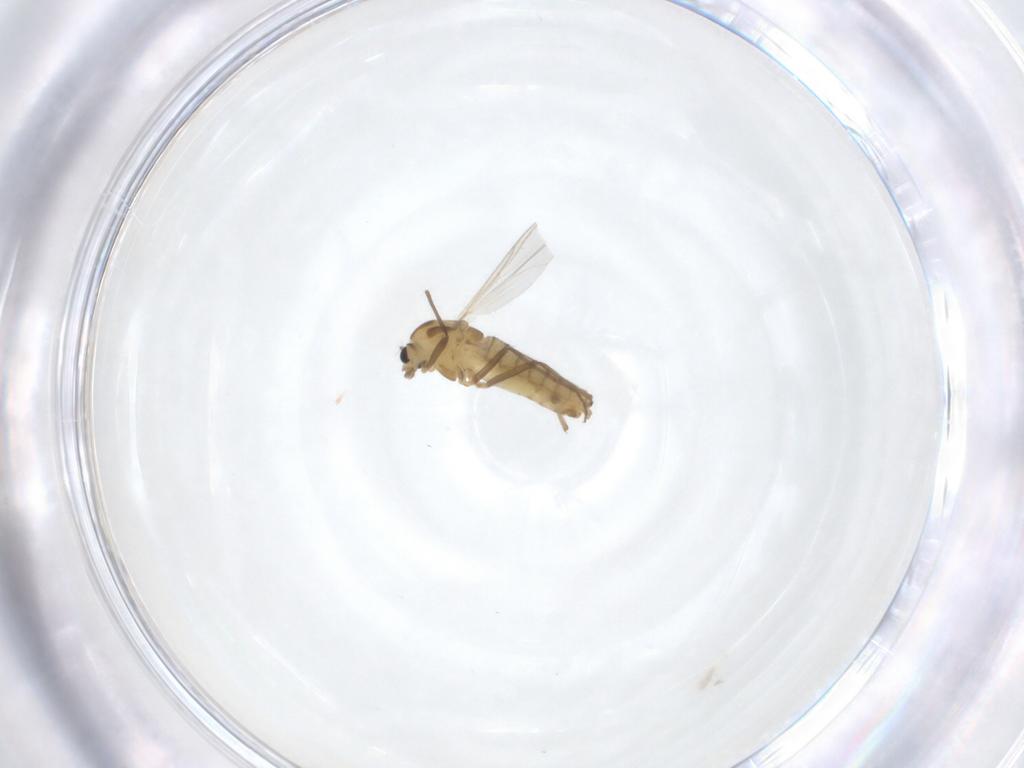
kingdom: Animalia
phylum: Arthropoda
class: Insecta
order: Diptera
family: Chironomidae
